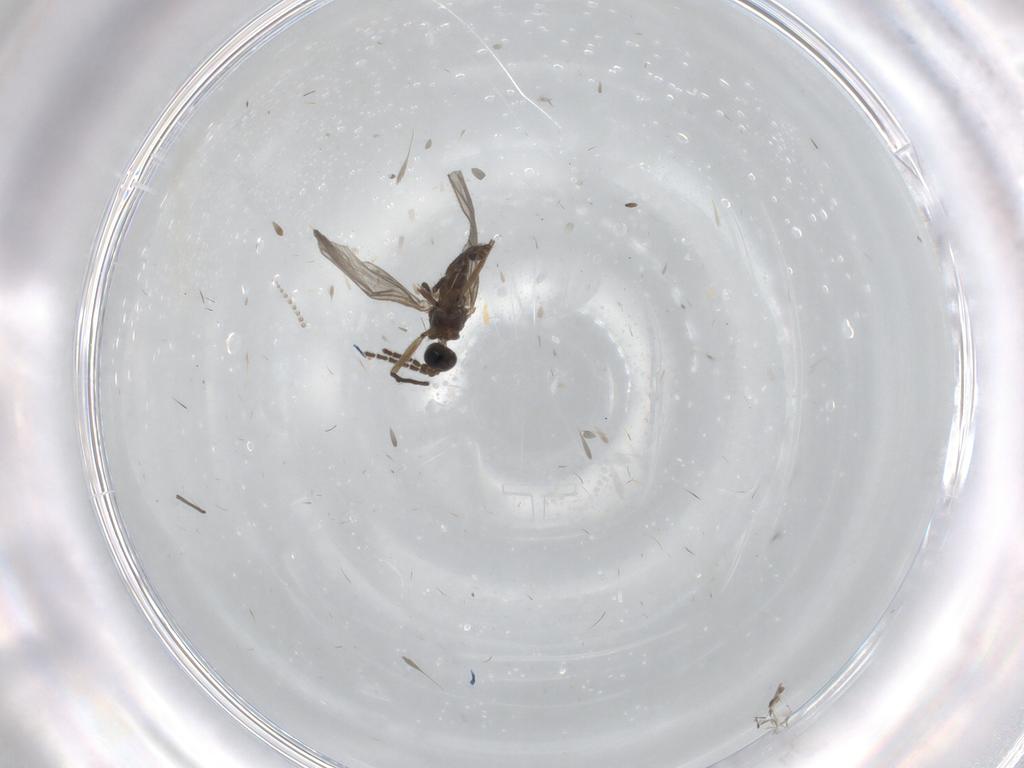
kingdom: Animalia
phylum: Arthropoda
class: Insecta
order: Diptera
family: Psychodidae
